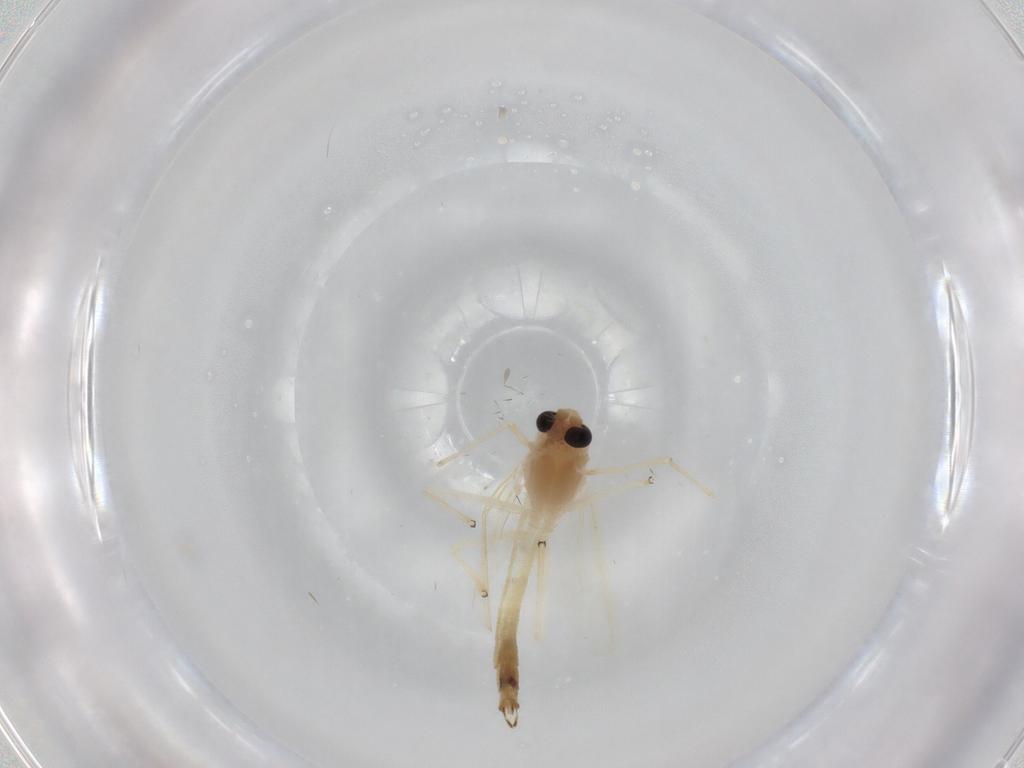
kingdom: Animalia
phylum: Arthropoda
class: Insecta
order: Diptera
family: Chironomidae
